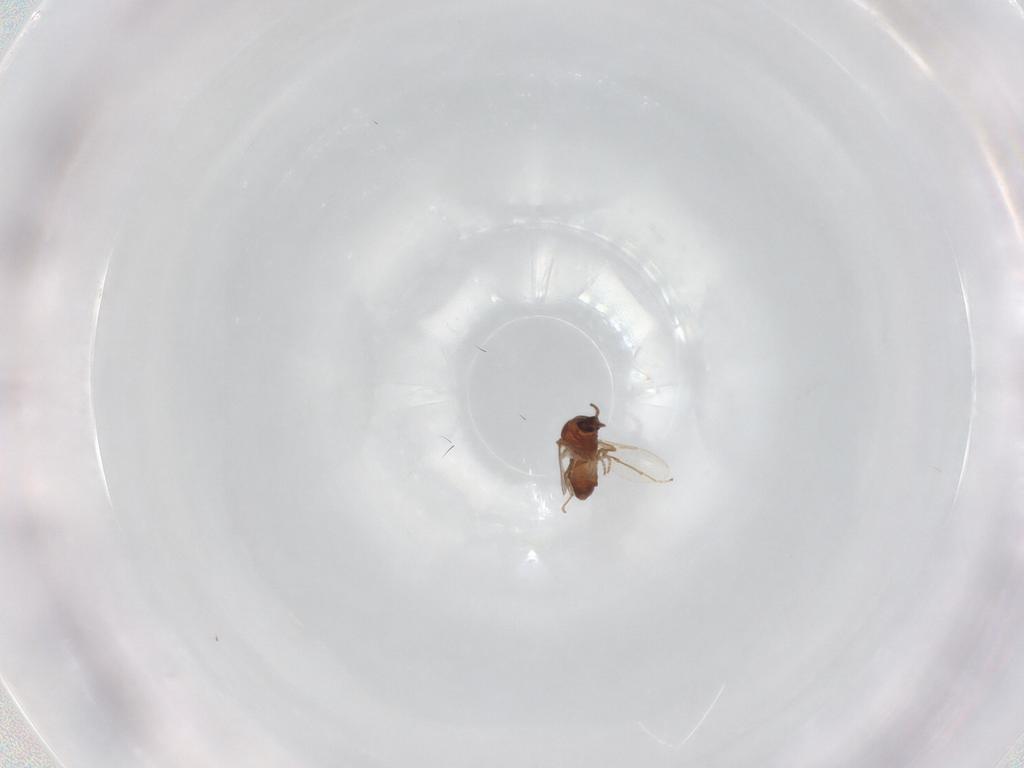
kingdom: Animalia
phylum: Arthropoda
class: Insecta
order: Diptera
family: Ceratopogonidae
